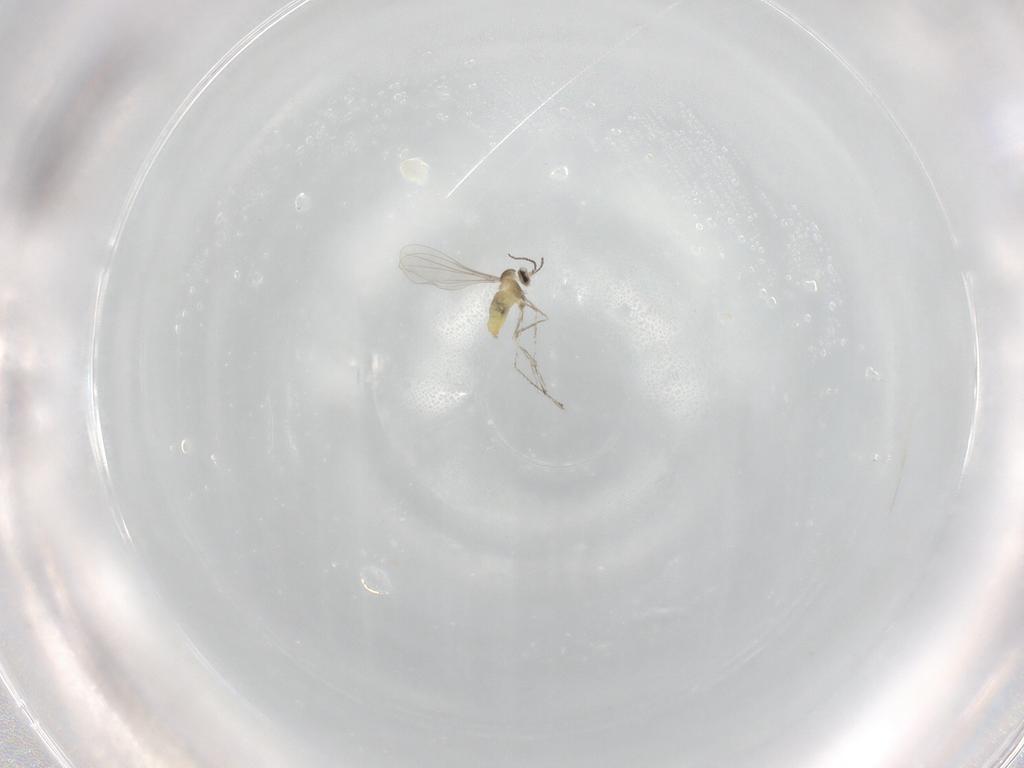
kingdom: Animalia
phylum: Arthropoda
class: Insecta
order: Diptera
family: Cecidomyiidae
